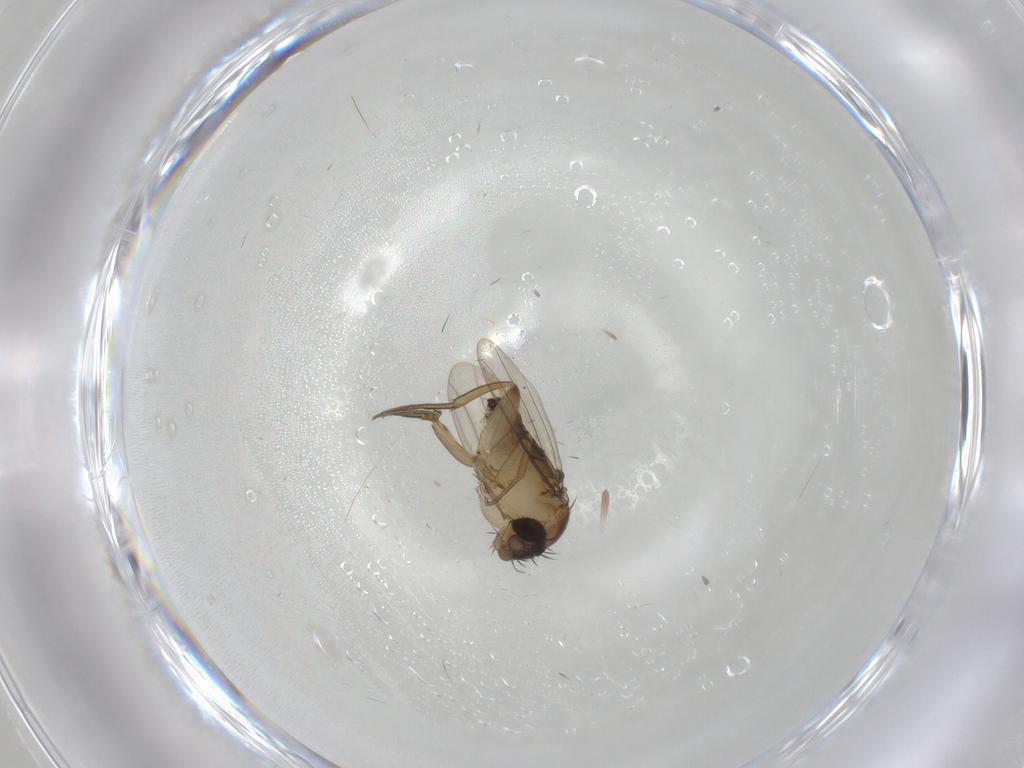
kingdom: Animalia
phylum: Arthropoda
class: Insecta
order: Diptera
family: Phoridae
